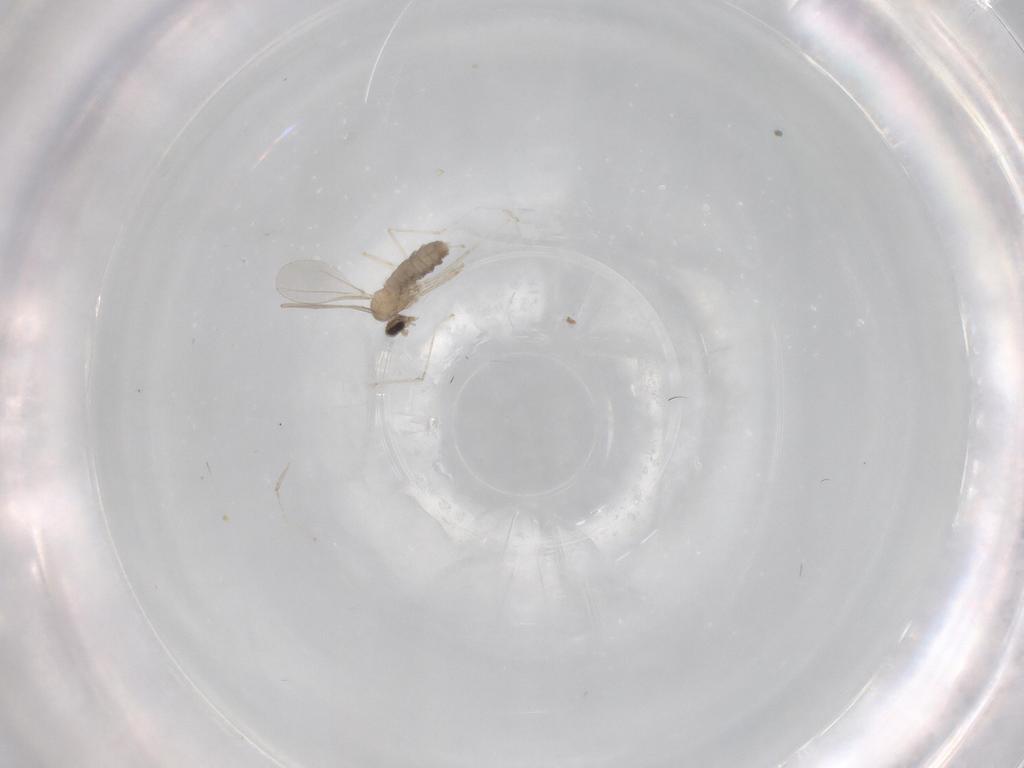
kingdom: Animalia
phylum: Arthropoda
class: Insecta
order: Diptera
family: Cecidomyiidae
